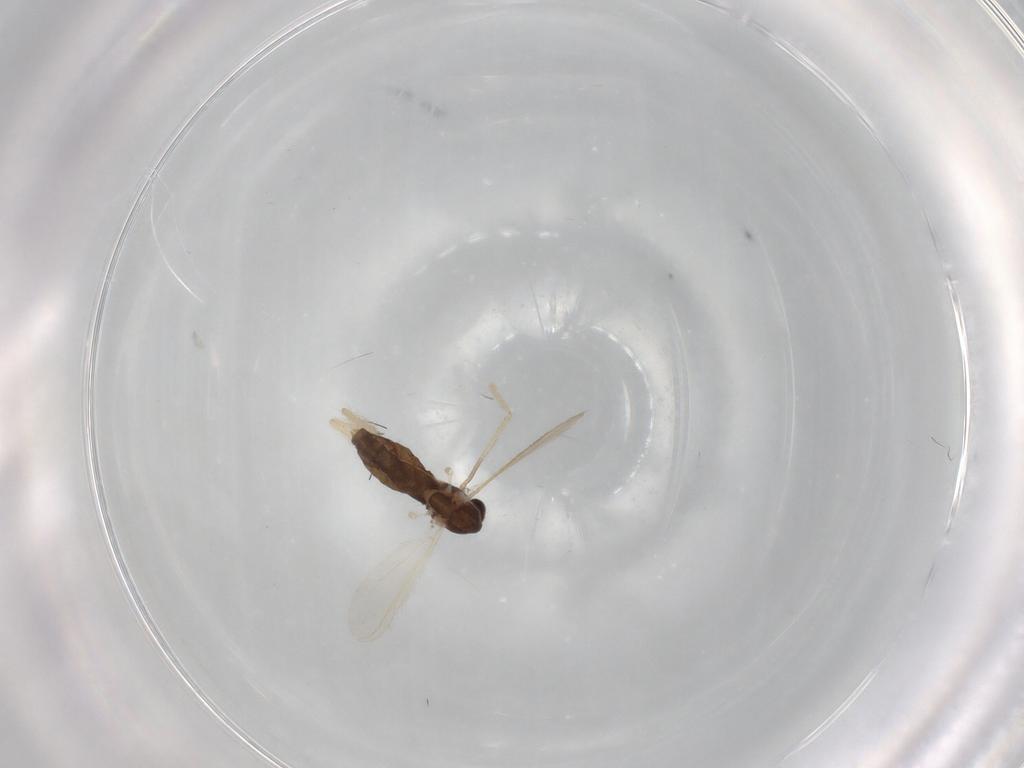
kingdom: Animalia
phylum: Arthropoda
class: Insecta
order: Diptera
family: Chironomidae
